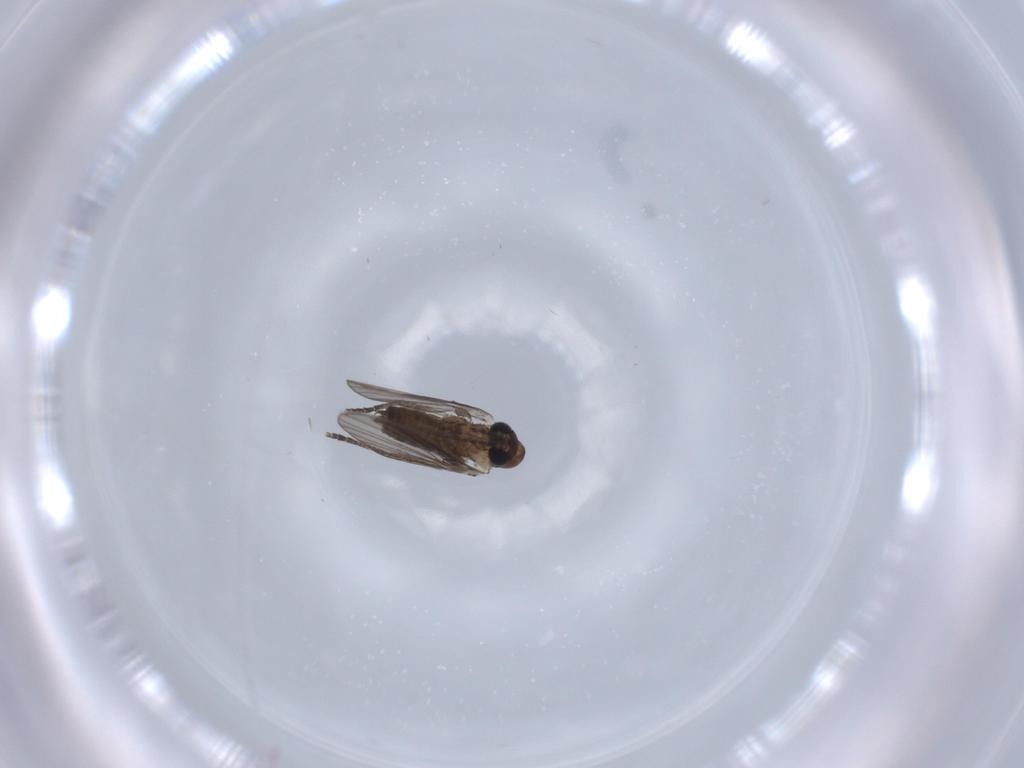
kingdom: Animalia
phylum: Arthropoda
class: Insecta
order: Diptera
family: Psychodidae
